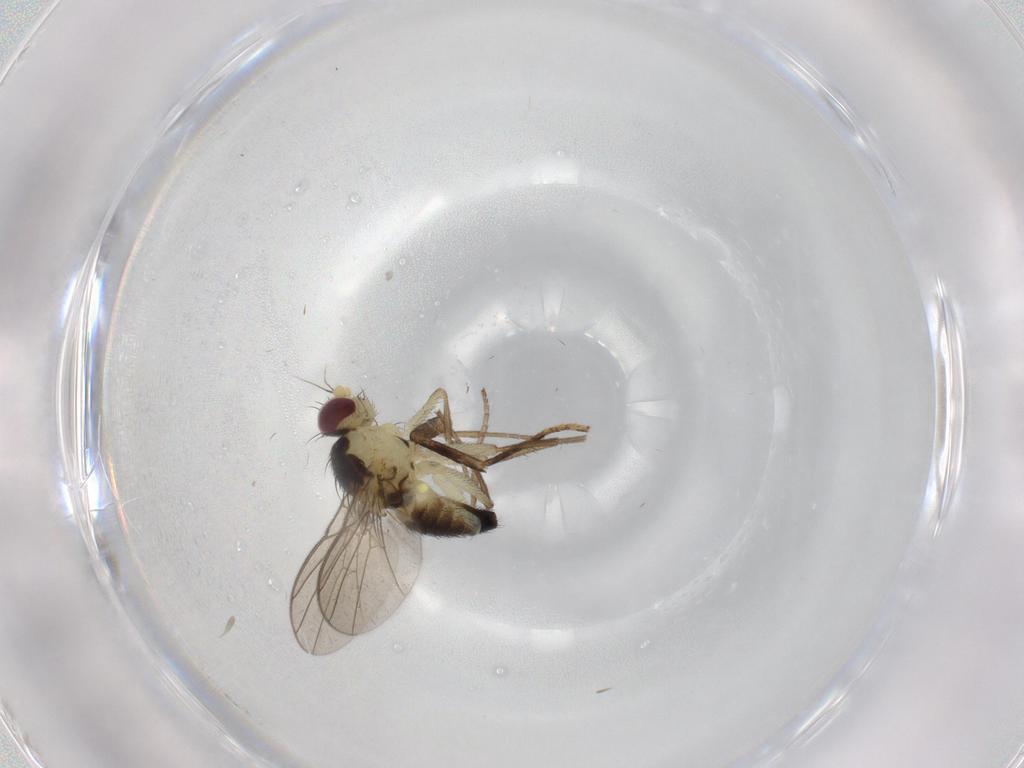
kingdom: Animalia
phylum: Arthropoda
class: Insecta
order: Diptera
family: Agromyzidae
